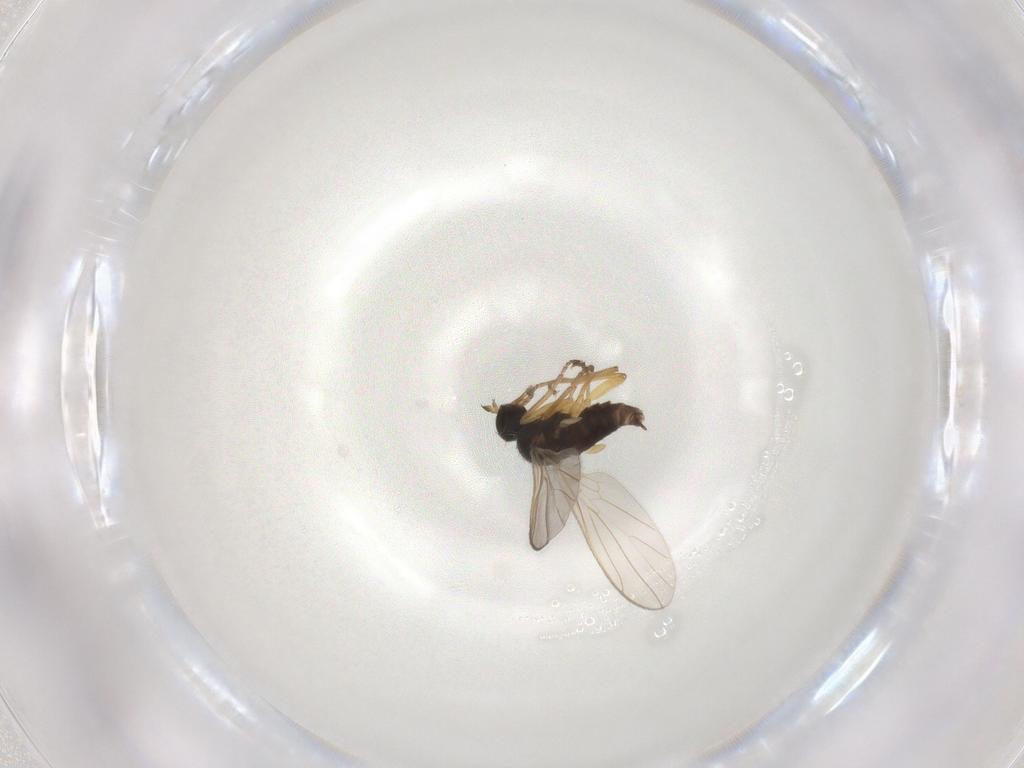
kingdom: Animalia
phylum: Arthropoda
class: Insecta
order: Diptera
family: Hybotidae
